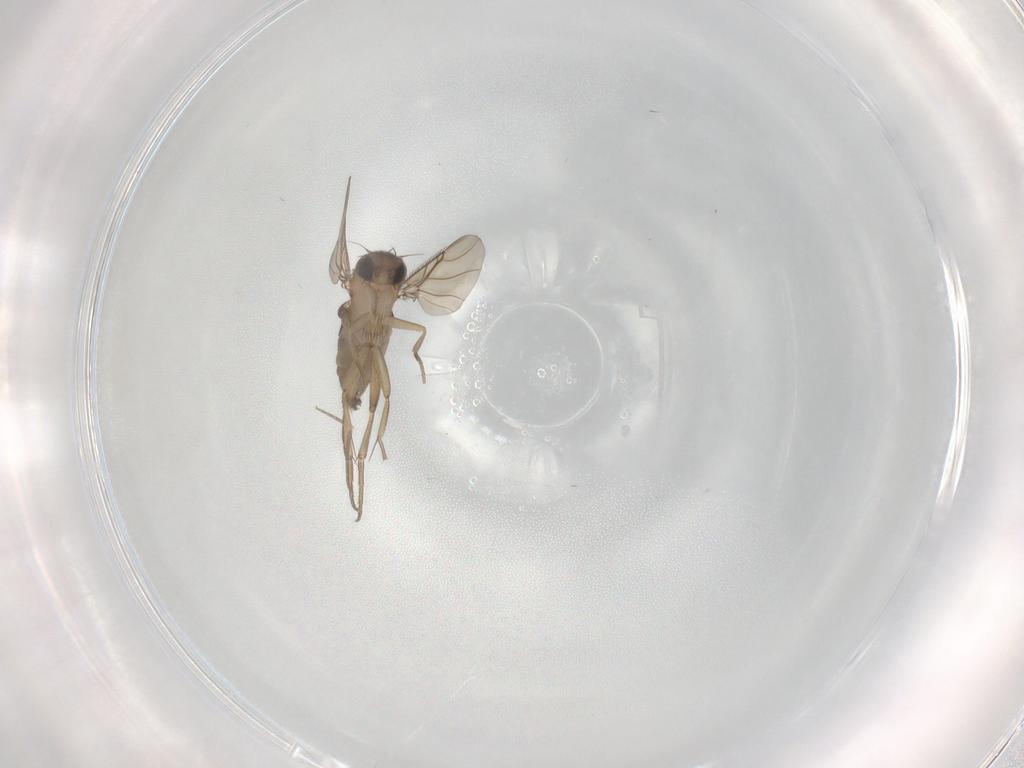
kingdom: Animalia
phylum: Arthropoda
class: Insecta
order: Diptera
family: Phoridae
